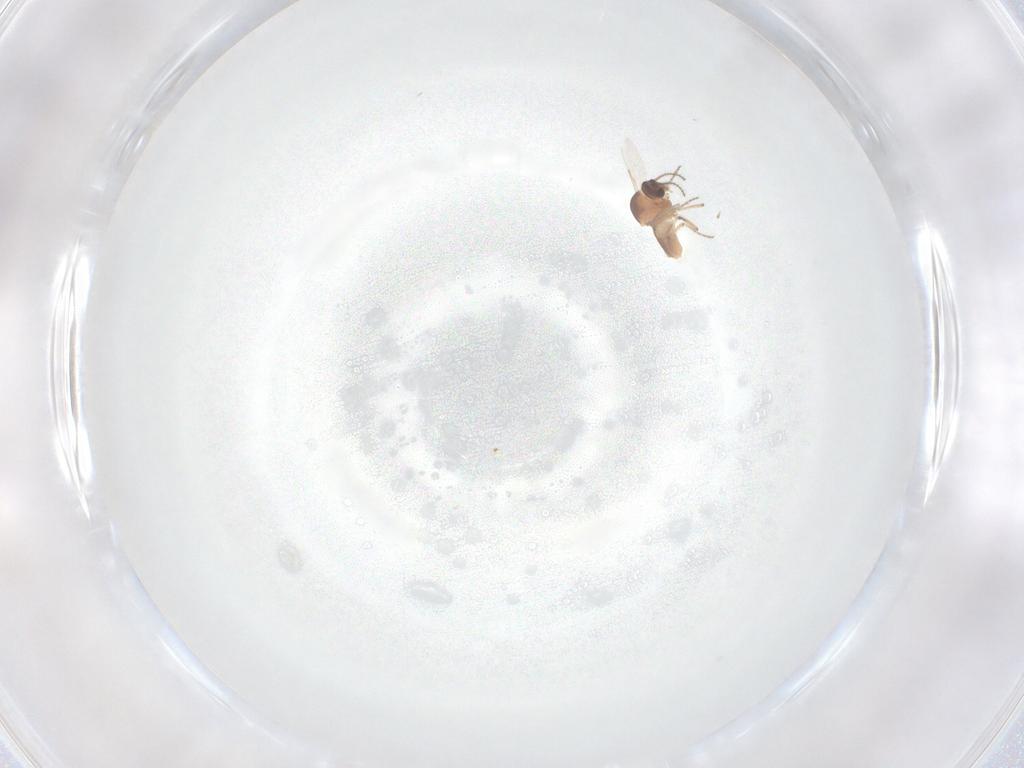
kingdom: Animalia
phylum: Arthropoda
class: Insecta
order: Diptera
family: Ceratopogonidae
